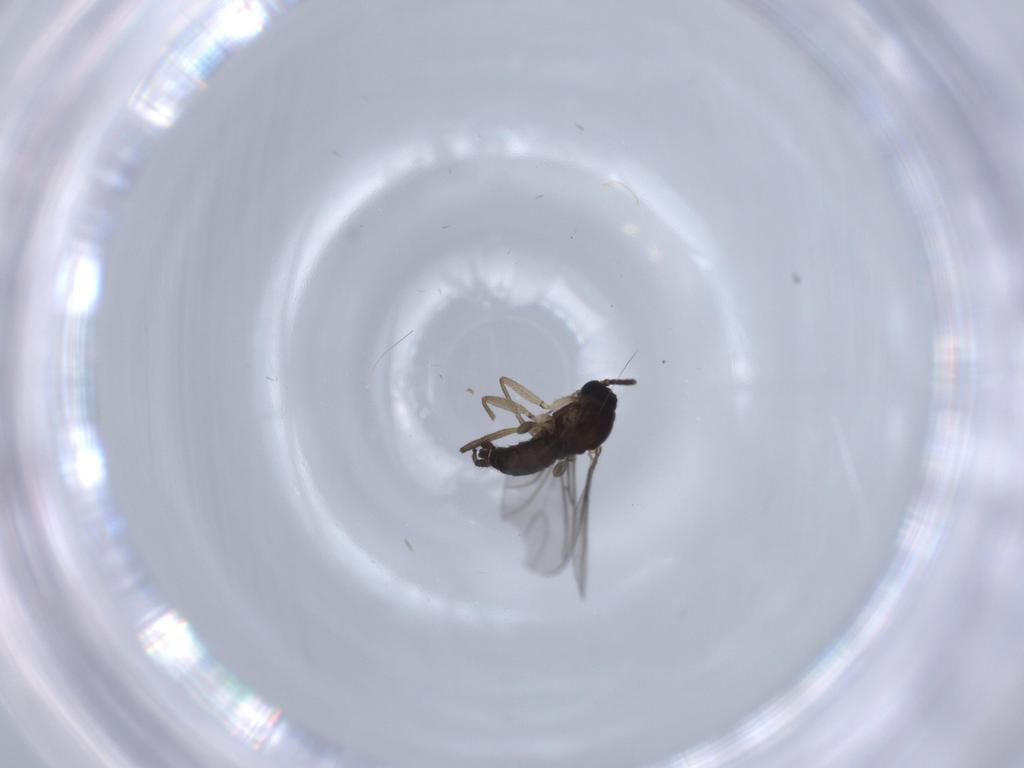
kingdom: Animalia
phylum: Arthropoda
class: Insecta
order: Diptera
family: Sciaridae
